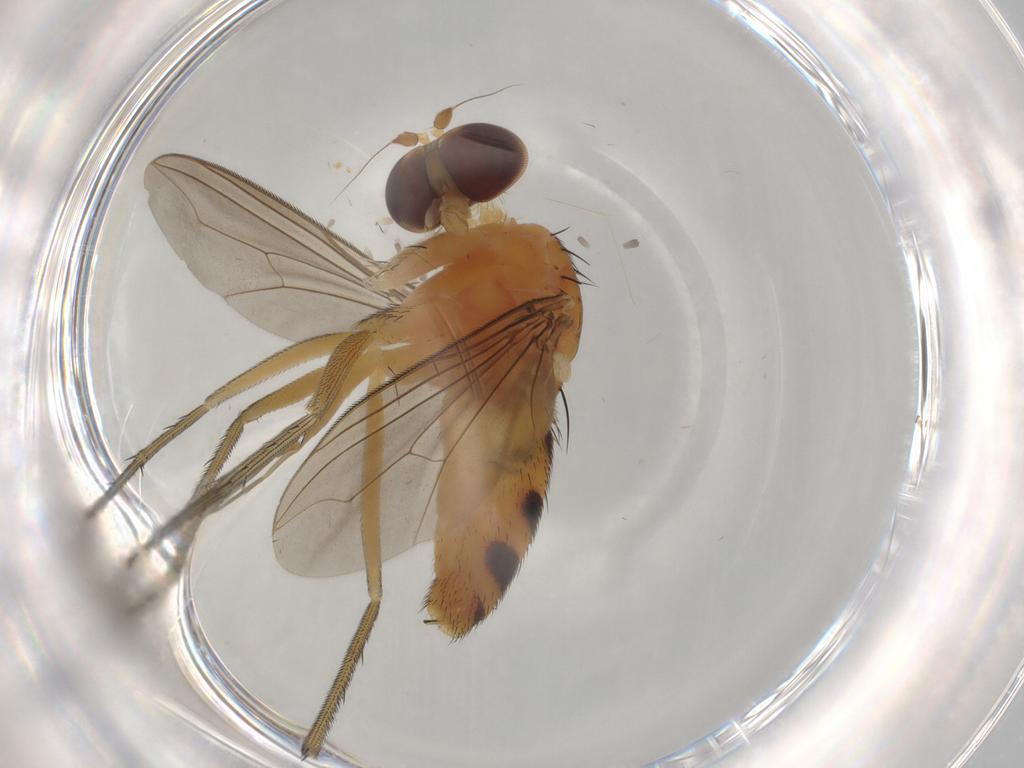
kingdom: Animalia
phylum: Arthropoda
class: Insecta
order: Diptera
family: Dolichopodidae
